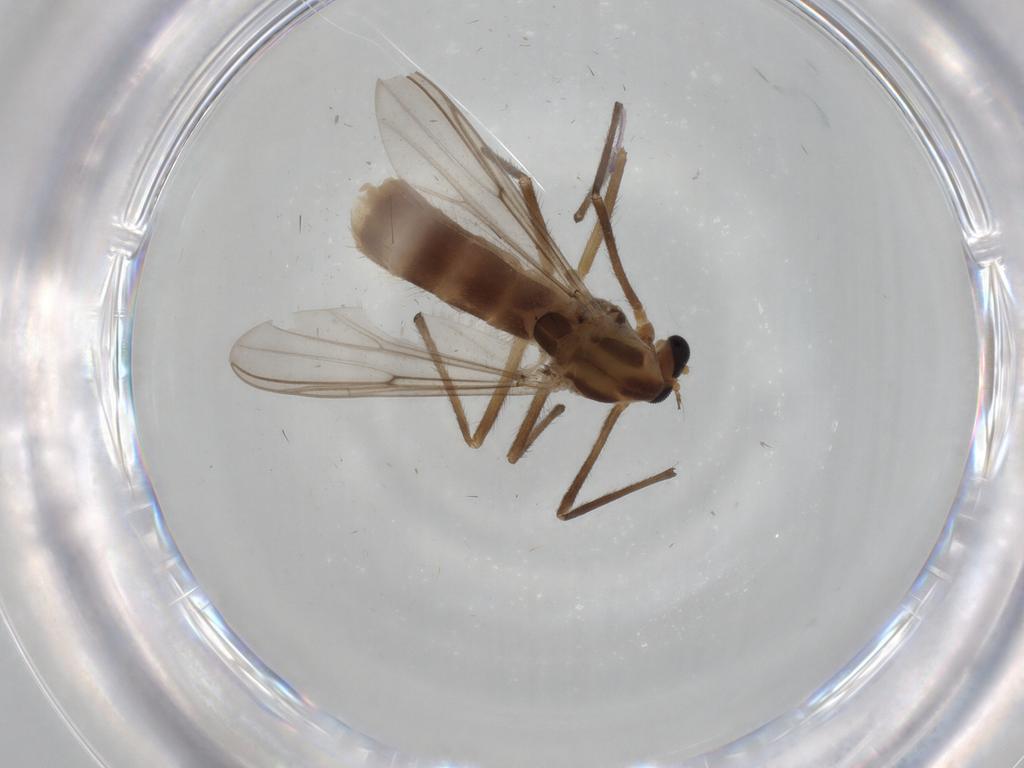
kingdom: Animalia
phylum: Arthropoda
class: Insecta
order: Diptera
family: Chironomidae
